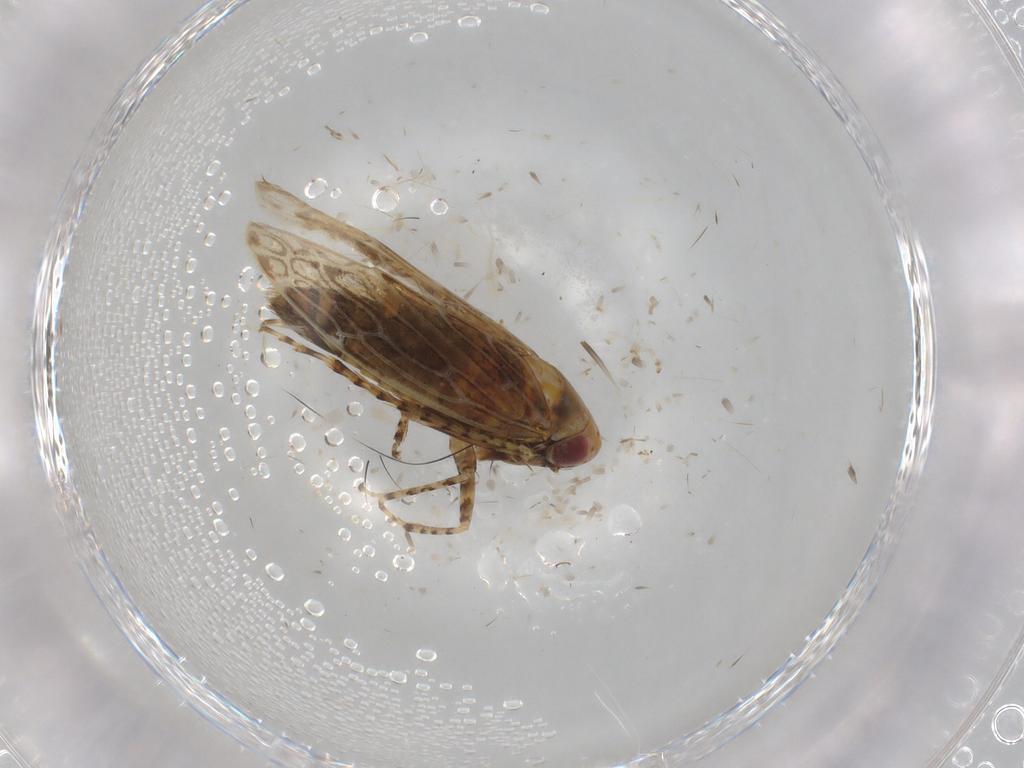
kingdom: Animalia
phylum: Arthropoda
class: Insecta
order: Hemiptera
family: Cicadellidae
